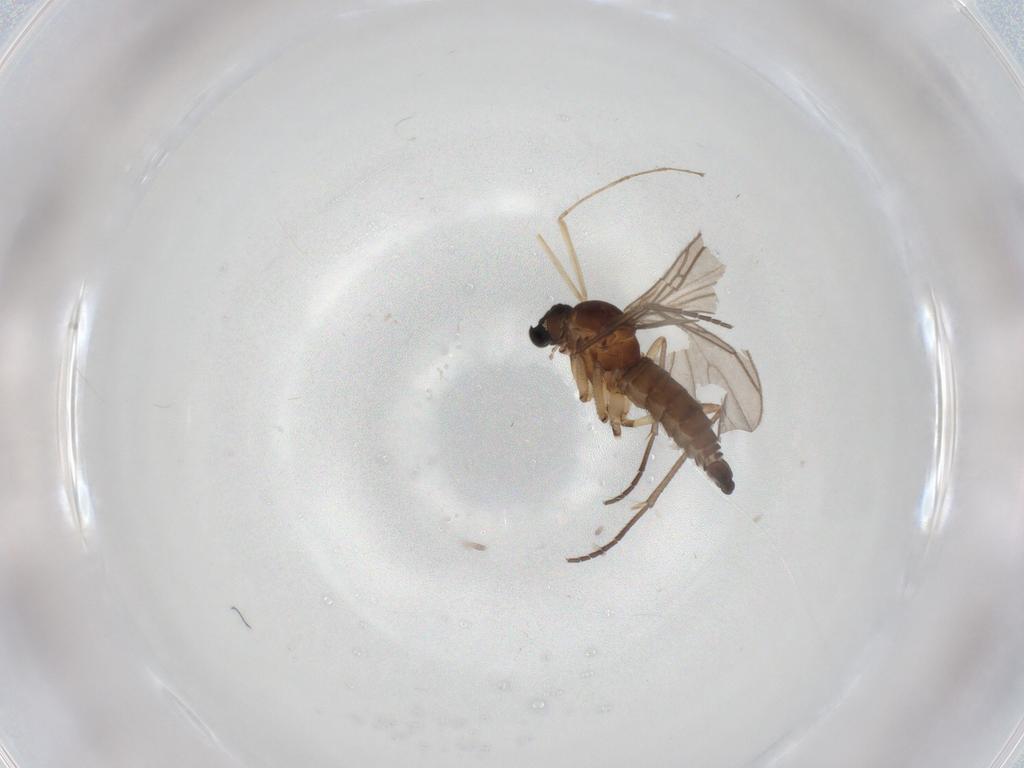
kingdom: Animalia
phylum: Arthropoda
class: Insecta
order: Diptera
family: Sciaridae
